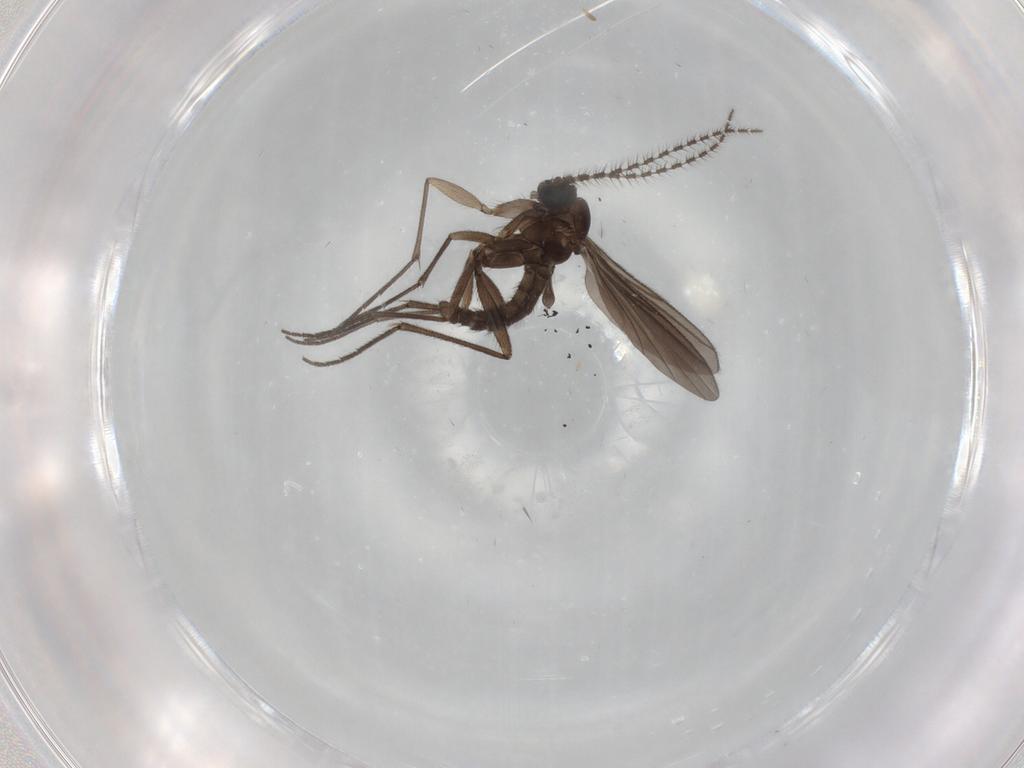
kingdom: Animalia
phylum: Arthropoda
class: Insecta
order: Diptera
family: Sciaridae
